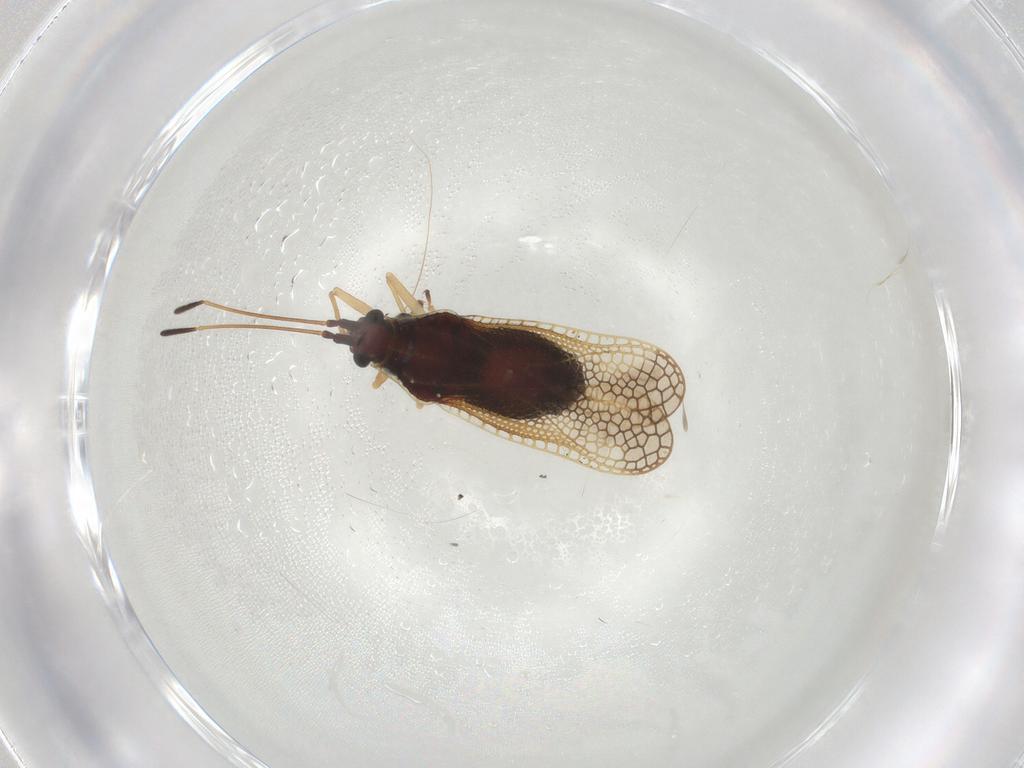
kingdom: Animalia
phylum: Arthropoda
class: Insecta
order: Hemiptera
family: Tingidae
